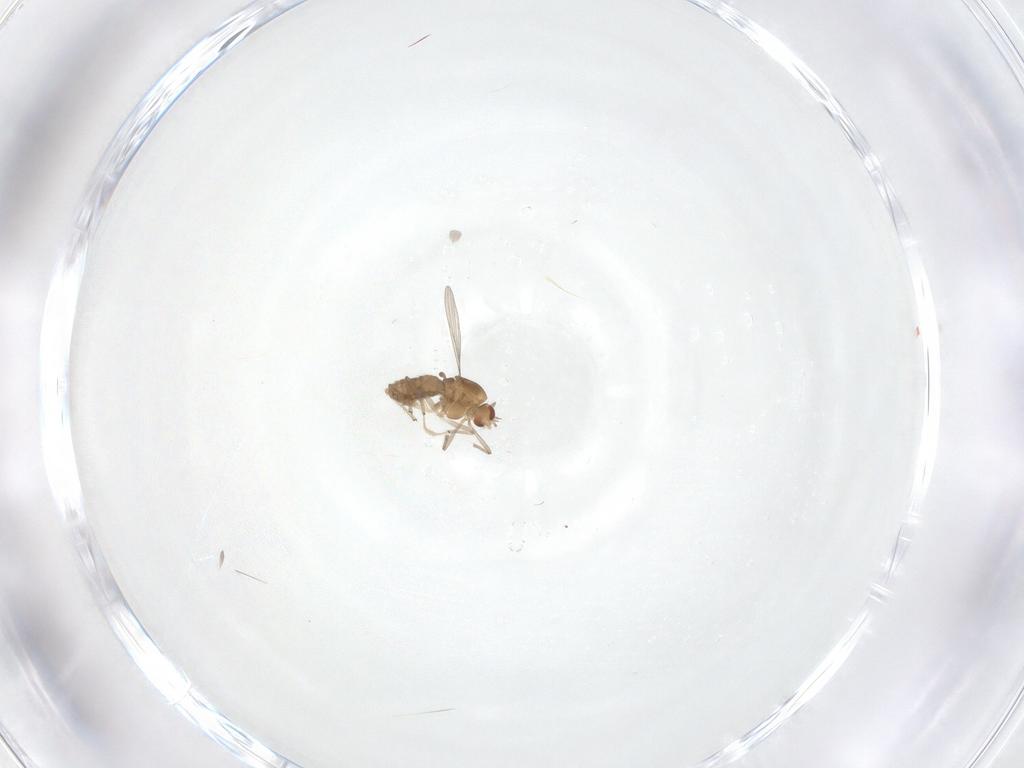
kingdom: Animalia
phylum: Arthropoda
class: Insecta
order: Diptera
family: Chironomidae
